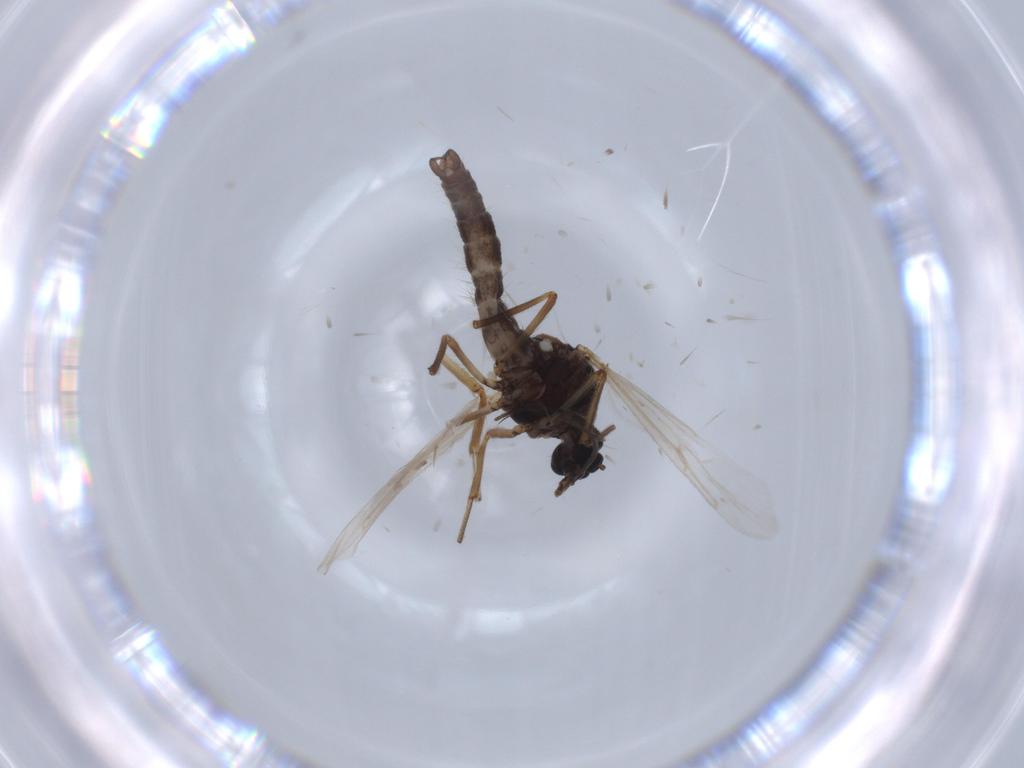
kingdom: Animalia
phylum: Arthropoda
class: Insecta
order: Diptera
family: Ceratopogonidae
